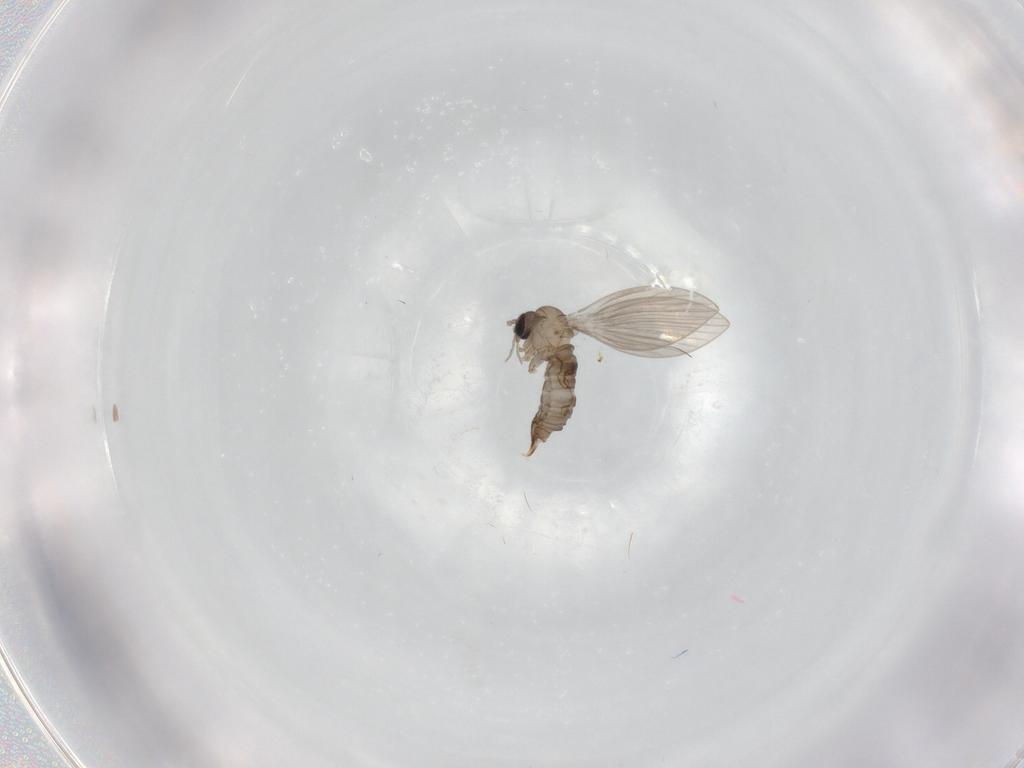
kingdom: Animalia
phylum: Arthropoda
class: Insecta
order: Diptera
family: Psychodidae
